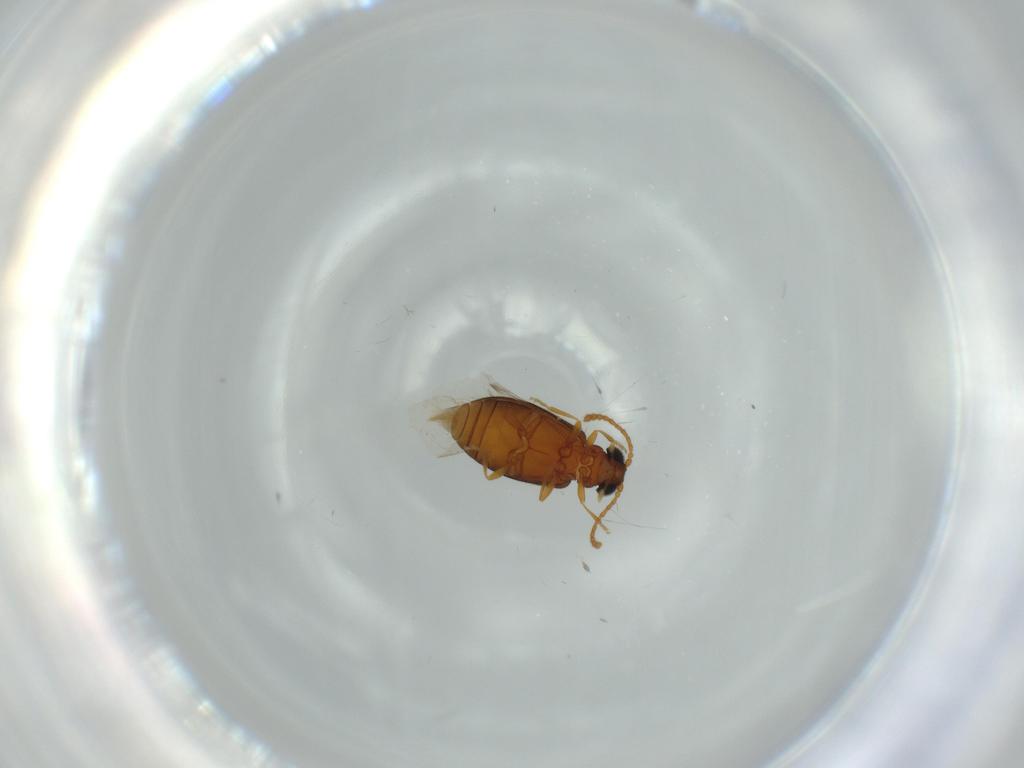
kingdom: Animalia
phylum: Arthropoda
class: Insecta
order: Coleoptera
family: Aderidae
